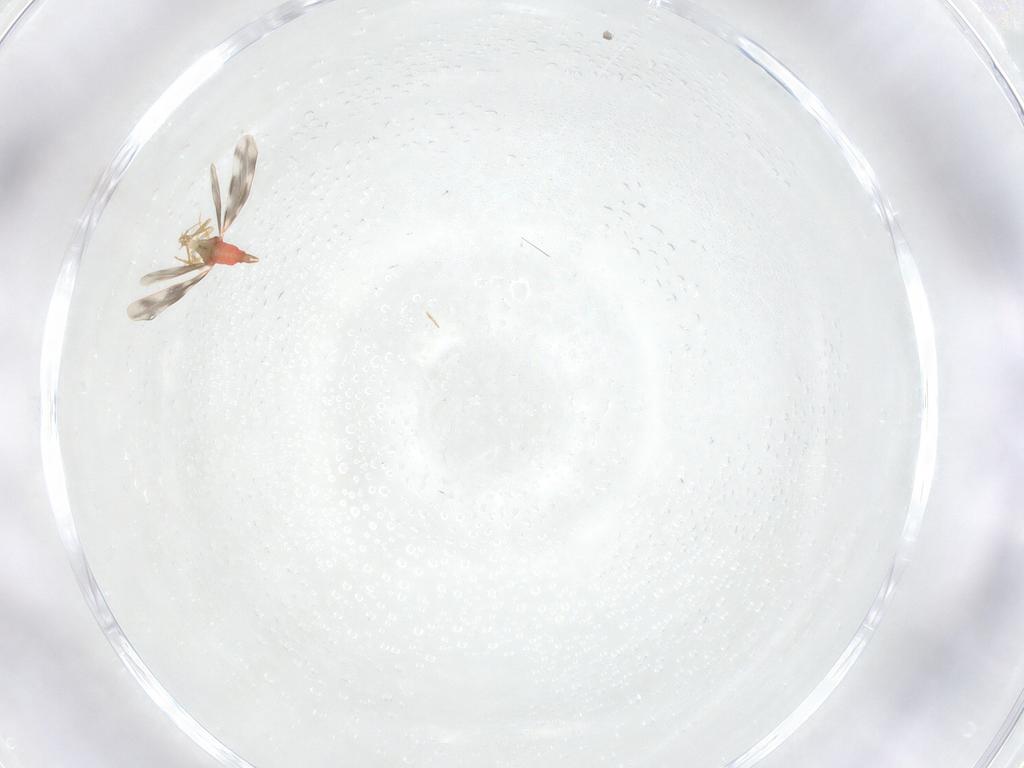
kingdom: Animalia
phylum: Arthropoda
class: Insecta
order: Hemiptera
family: Aleyrodidae
